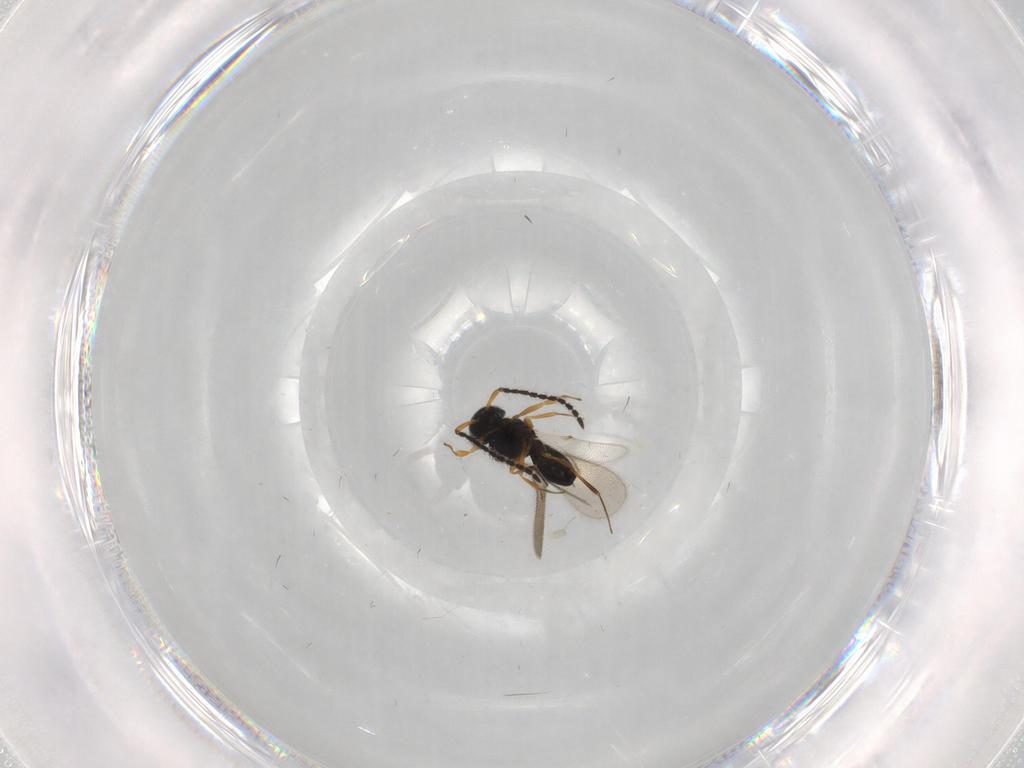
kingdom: Animalia
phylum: Arthropoda
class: Insecta
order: Hymenoptera
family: Scelionidae
